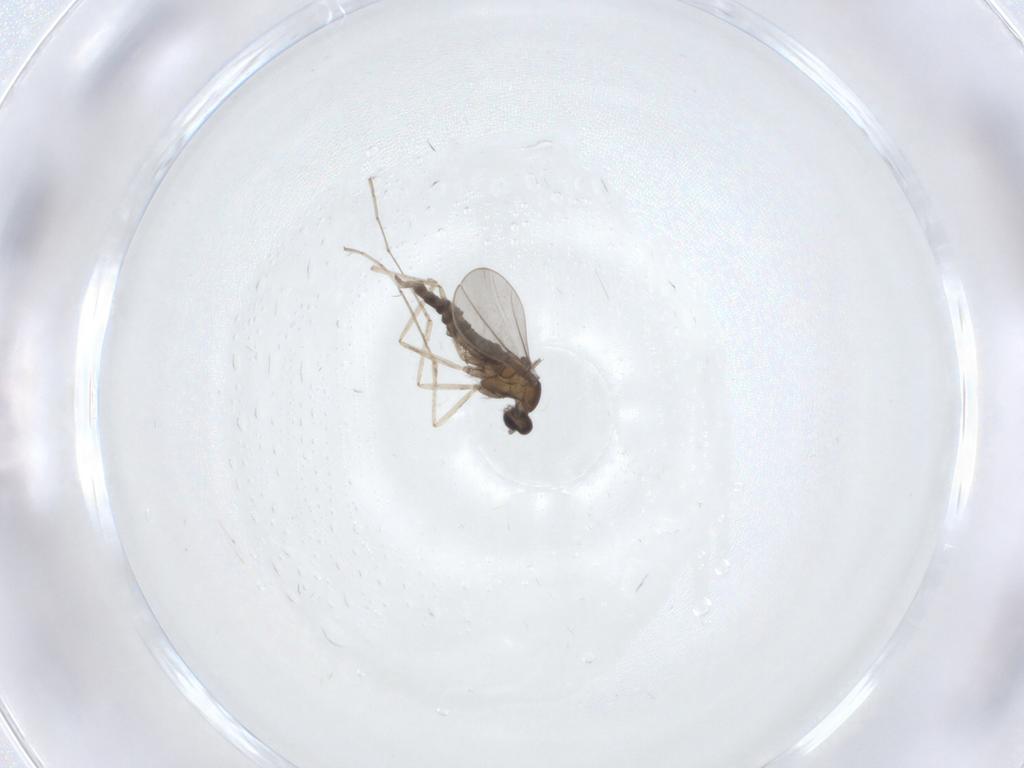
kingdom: Animalia
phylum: Arthropoda
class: Insecta
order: Diptera
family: Cecidomyiidae
